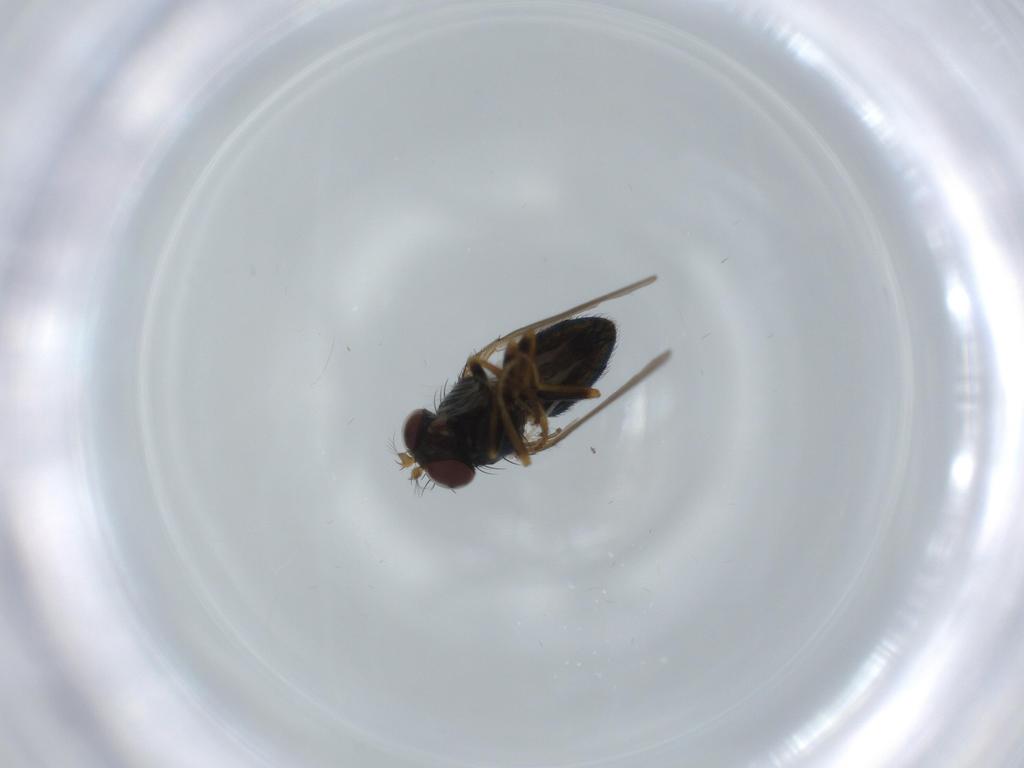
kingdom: Animalia
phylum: Arthropoda
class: Insecta
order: Diptera
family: Ephydridae
